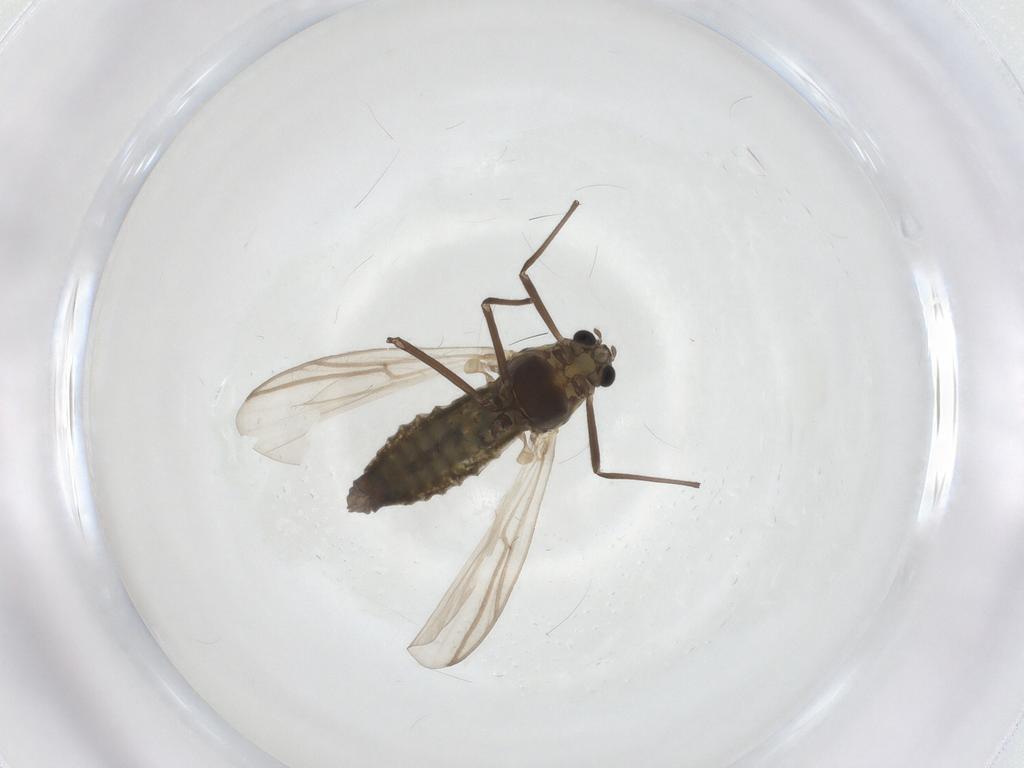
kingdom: Animalia
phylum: Arthropoda
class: Insecta
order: Diptera
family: Chironomidae
